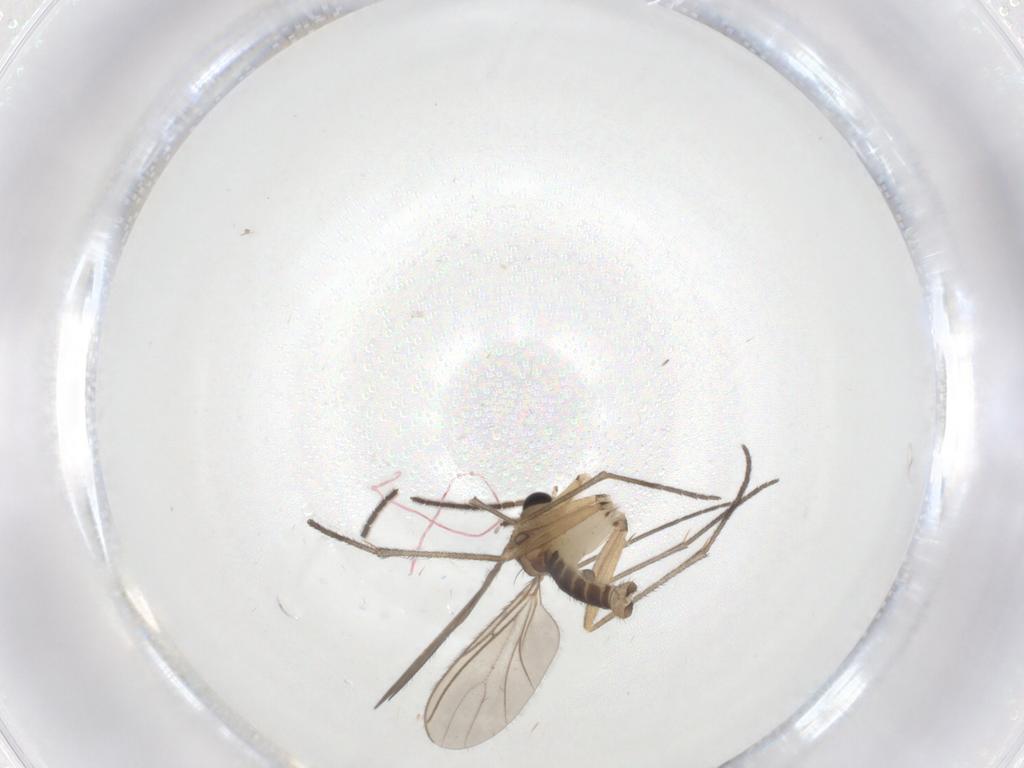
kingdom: Animalia
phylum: Arthropoda
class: Insecta
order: Diptera
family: Sciaridae
